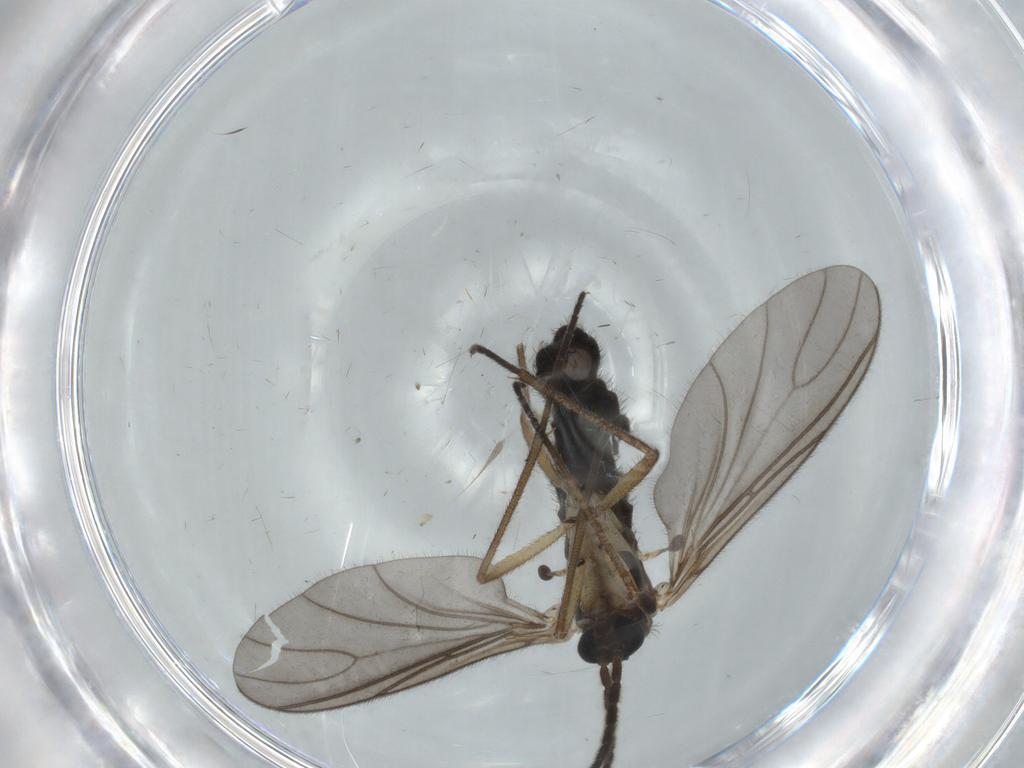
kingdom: Animalia
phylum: Arthropoda
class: Insecta
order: Diptera
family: Sciaridae
